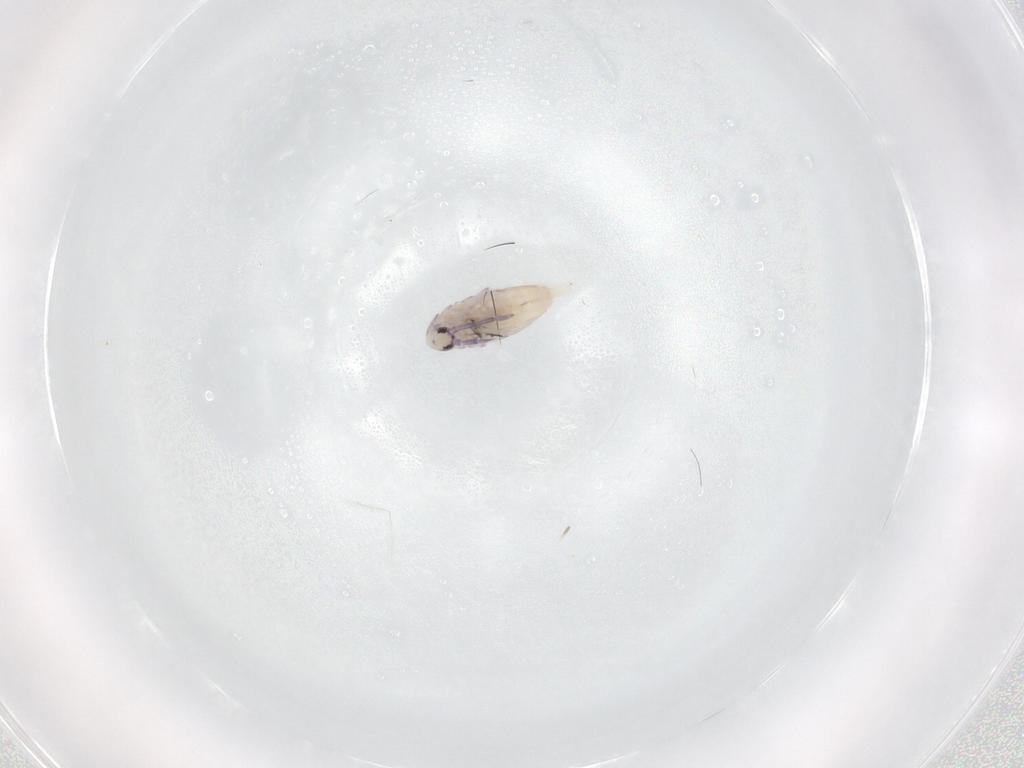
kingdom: Animalia
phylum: Arthropoda
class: Collembola
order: Entomobryomorpha
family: Entomobryidae
